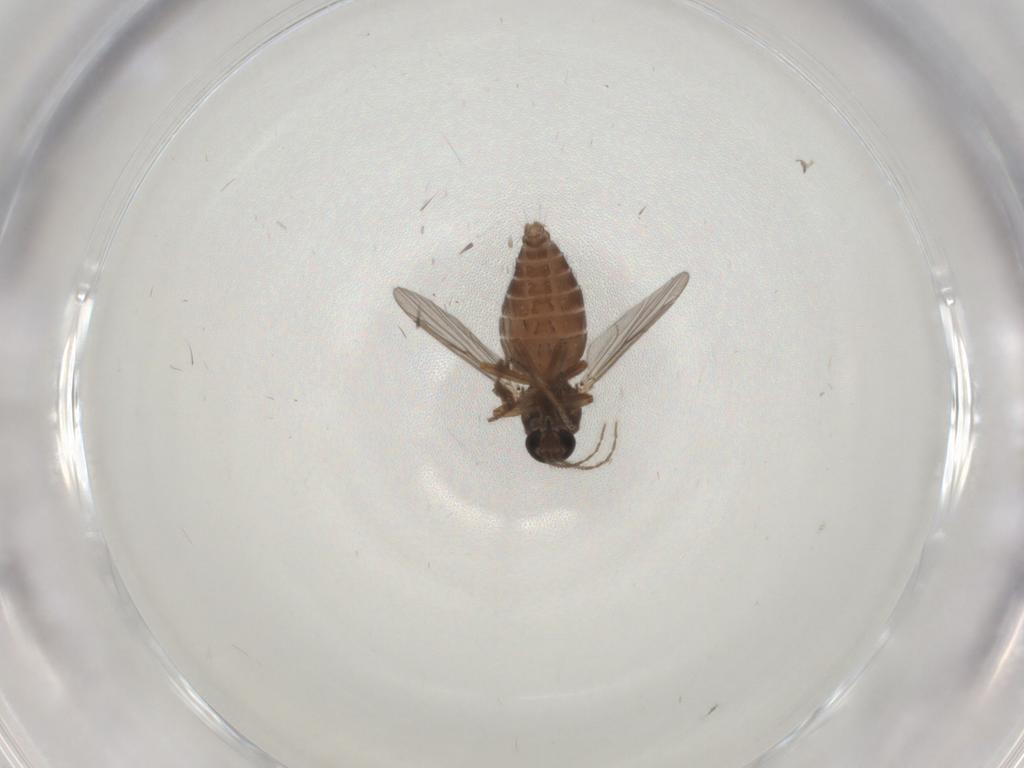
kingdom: Animalia
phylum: Arthropoda
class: Insecta
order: Diptera
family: Ceratopogonidae
